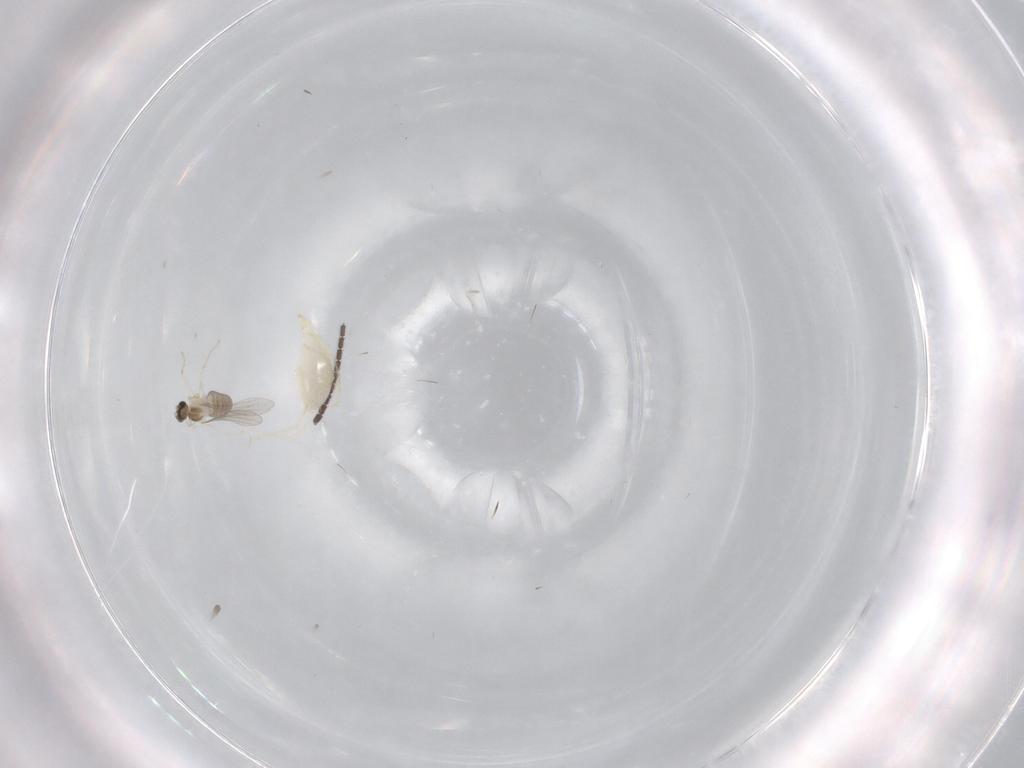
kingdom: Animalia
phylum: Arthropoda
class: Insecta
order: Diptera
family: Cecidomyiidae
